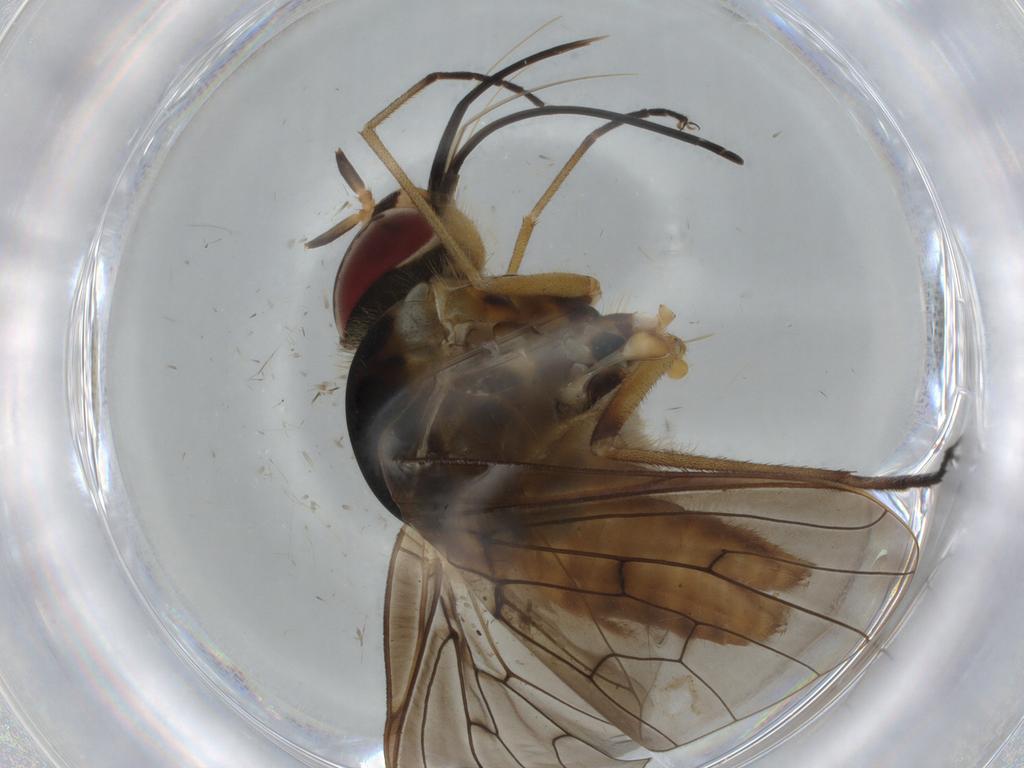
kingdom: Animalia
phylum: Arthropoda
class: Insecta
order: Diptera
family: Bombyliidae
